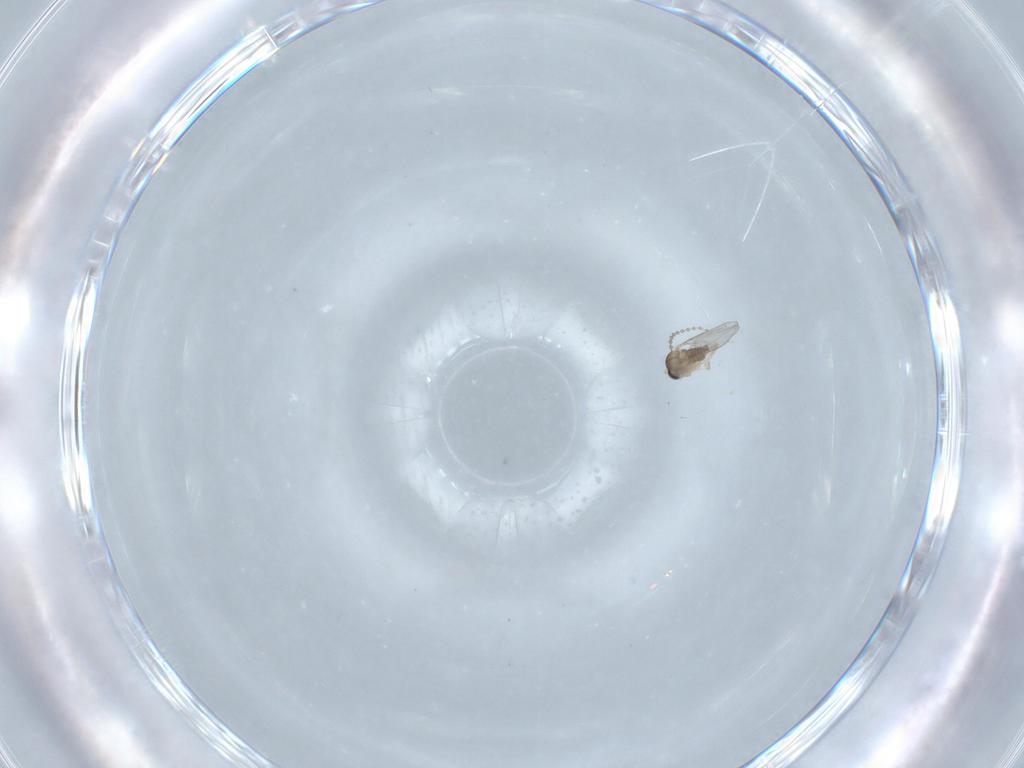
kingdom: Animalia
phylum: Arthropoda
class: Insecta
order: Diptera
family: Cecidomyiidae
